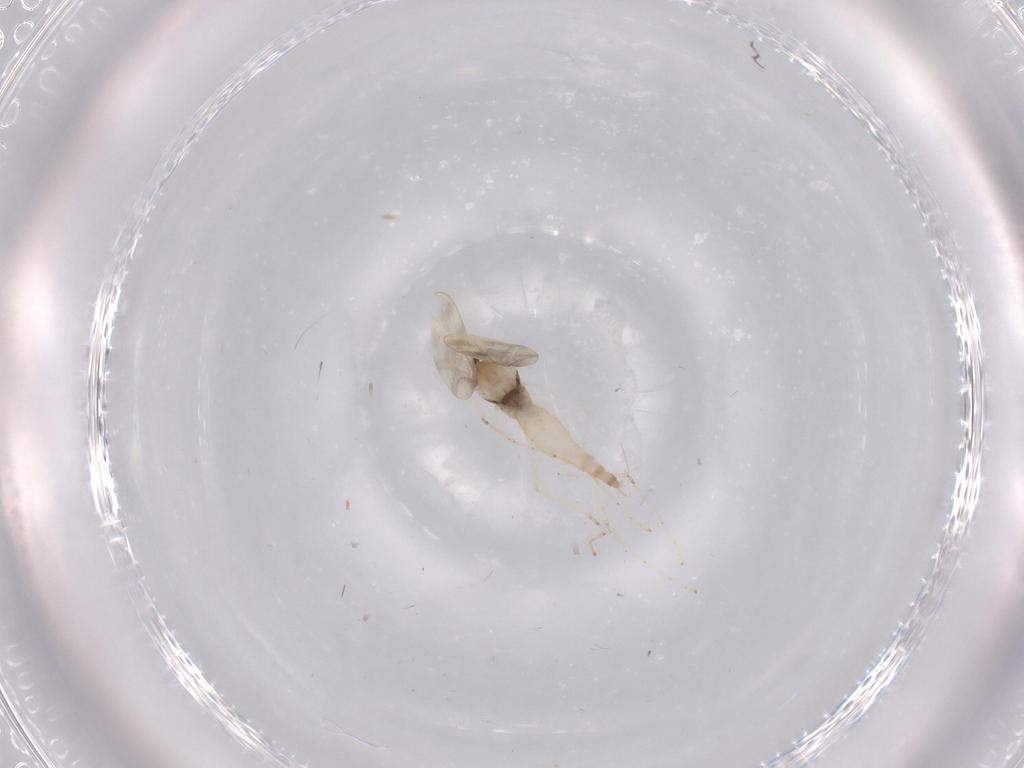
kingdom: Animalia
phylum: Arthropoda
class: Insecta
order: Diptera
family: Cecidomyiidae
